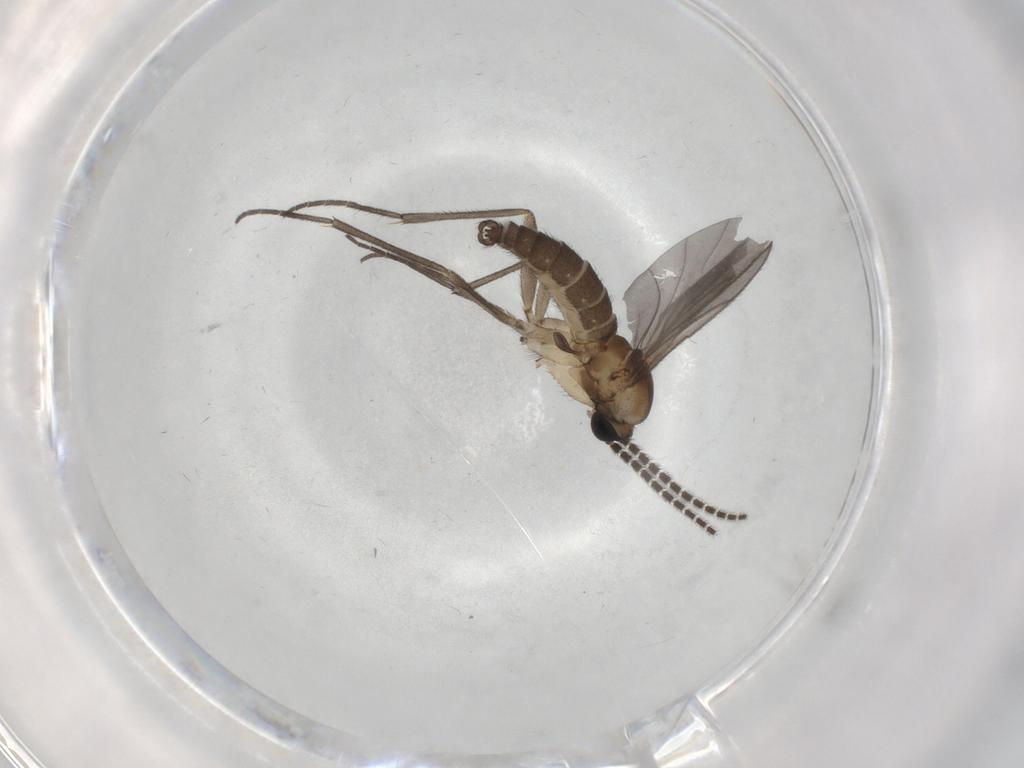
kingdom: Animalia
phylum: Arthropoda
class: Insecta
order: Diptera
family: Sciaridae
